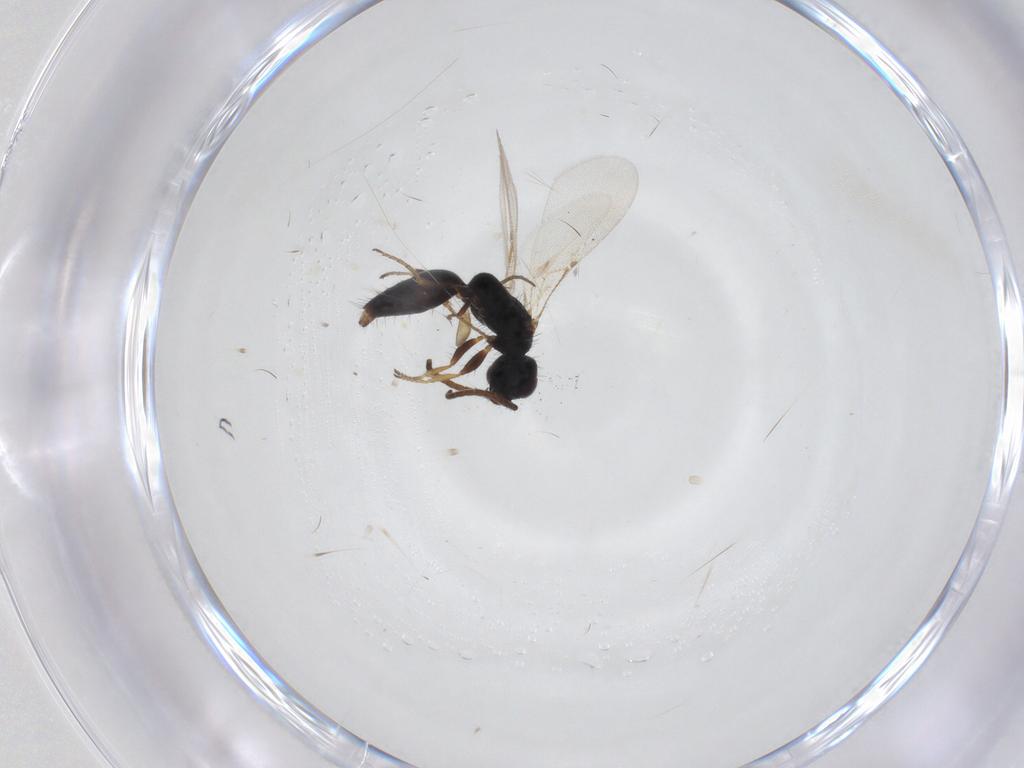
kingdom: Animalia
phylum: Arthropoda
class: Insecta
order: Hymenoptera
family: Bethylidae
